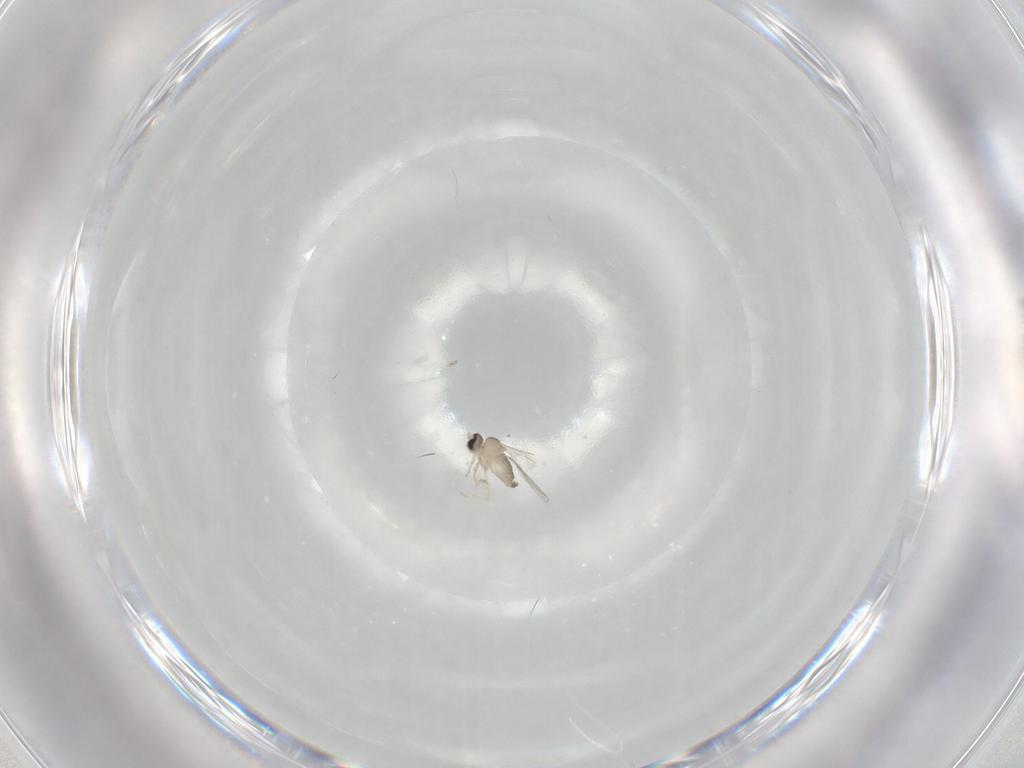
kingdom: Animalia
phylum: Arthropoda
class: Insecta
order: Diptera
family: Cecidomyiidae
